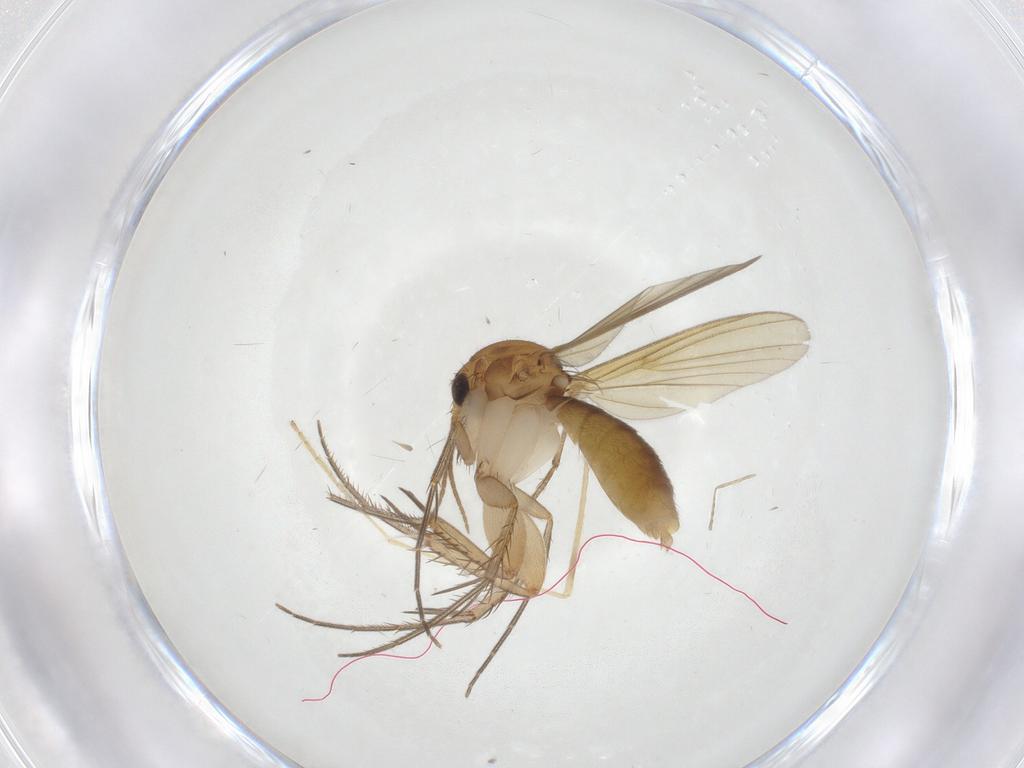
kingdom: Animalia
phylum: Arthropoda
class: Insecta
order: Diptera
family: Mycetophilidae
